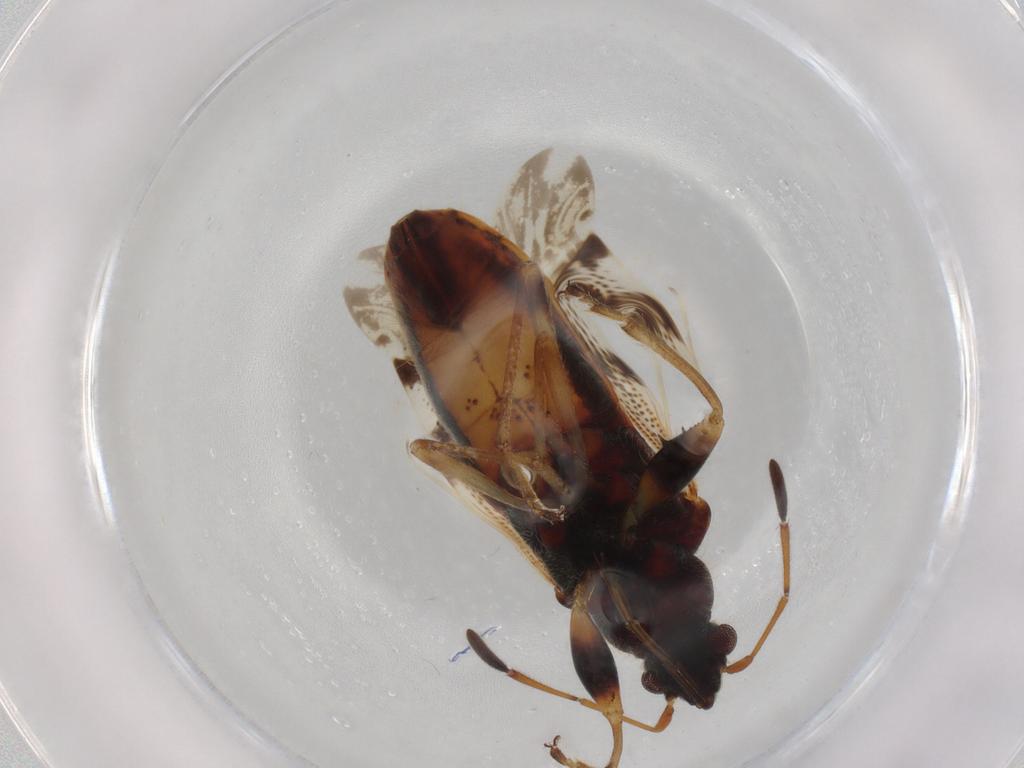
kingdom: Animalia
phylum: Arthropoda
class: Insecta
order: Hemiptera
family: Rhyparochromidae
